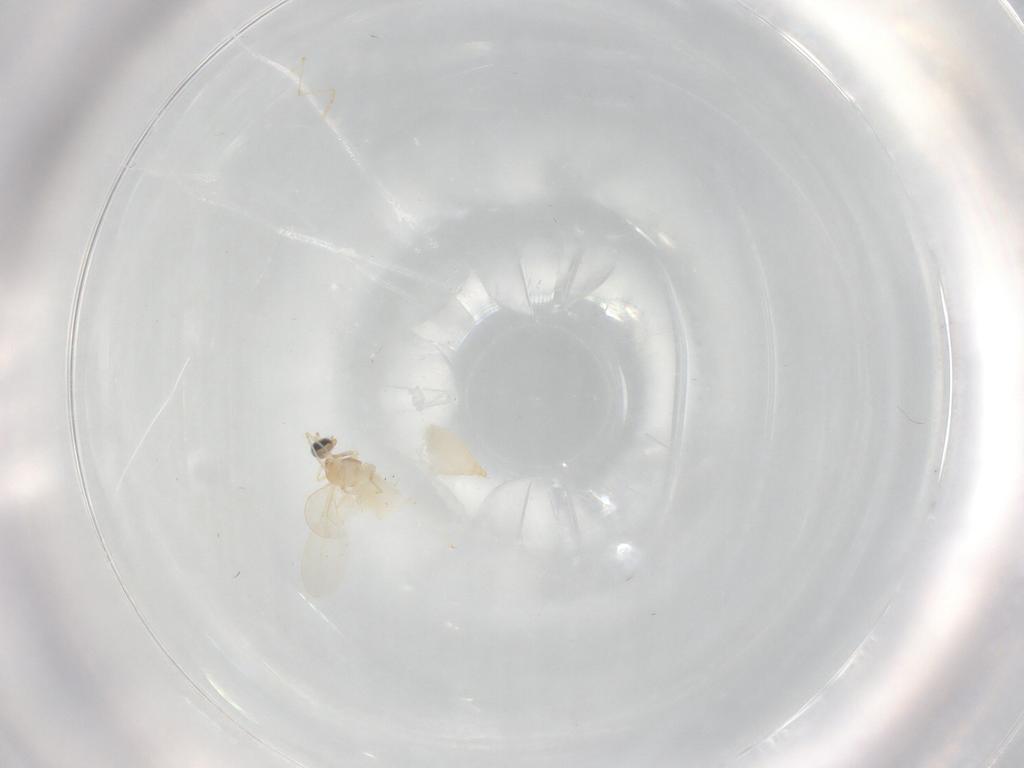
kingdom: Animalia
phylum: Arthropoda
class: Insecta
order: Diptera
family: Cecidomyiidae
